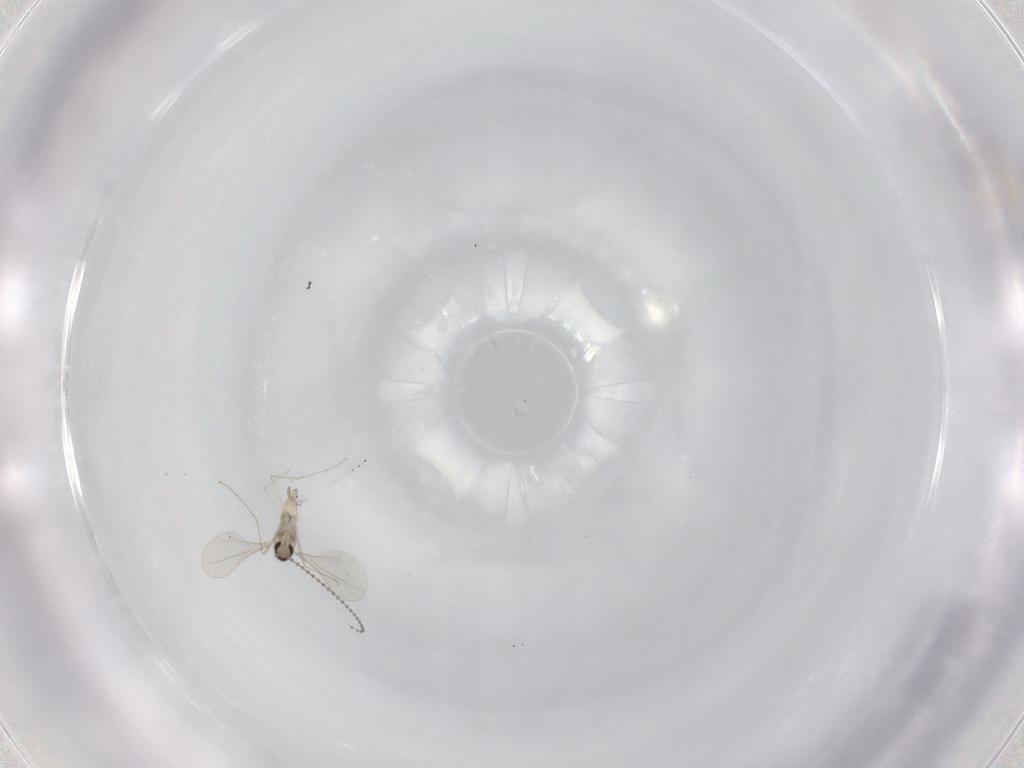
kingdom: Animalia
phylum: Arthropoda
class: Insecta
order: Diptera
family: Cecidomyiidae
